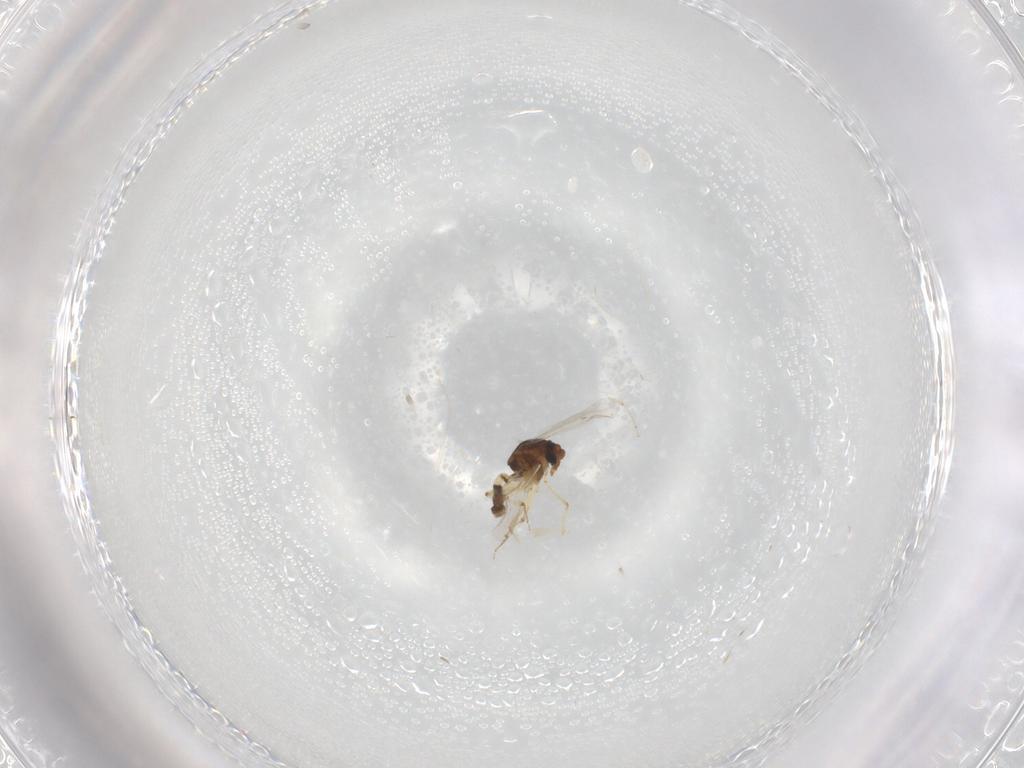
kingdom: Animalia
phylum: Arthropoda
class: Insecta
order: Diptera
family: Ceratopogonidae
